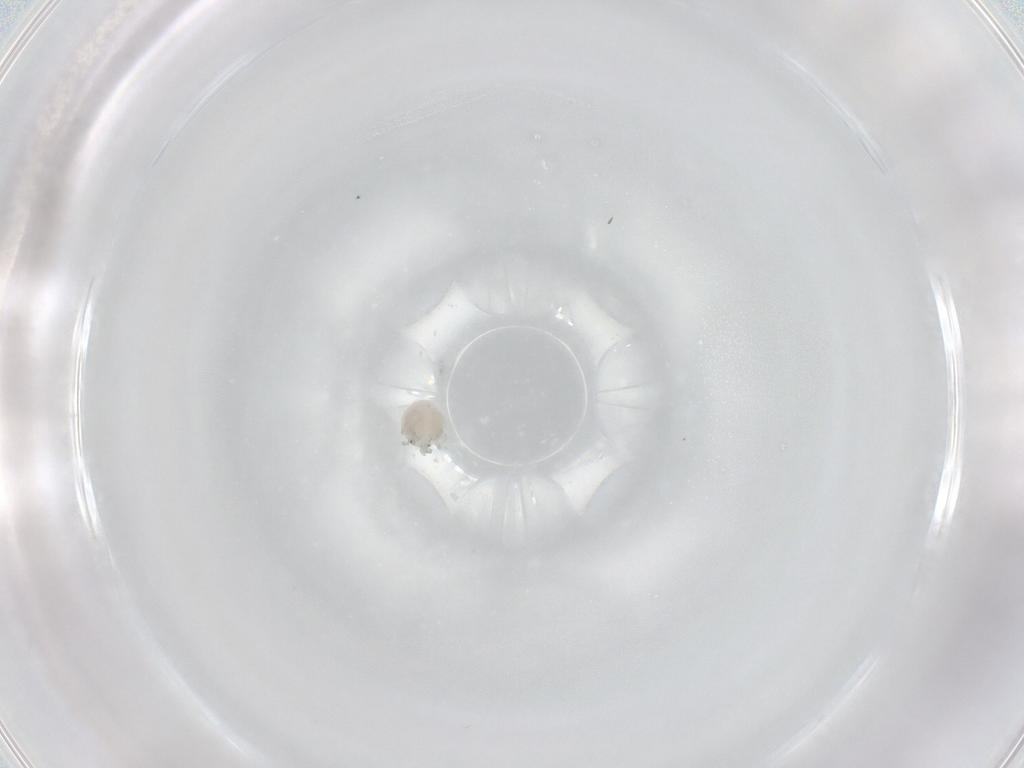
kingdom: Animalia
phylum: Arthropoda
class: Arachnida
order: Trombidiformes
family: Arrenuridae
